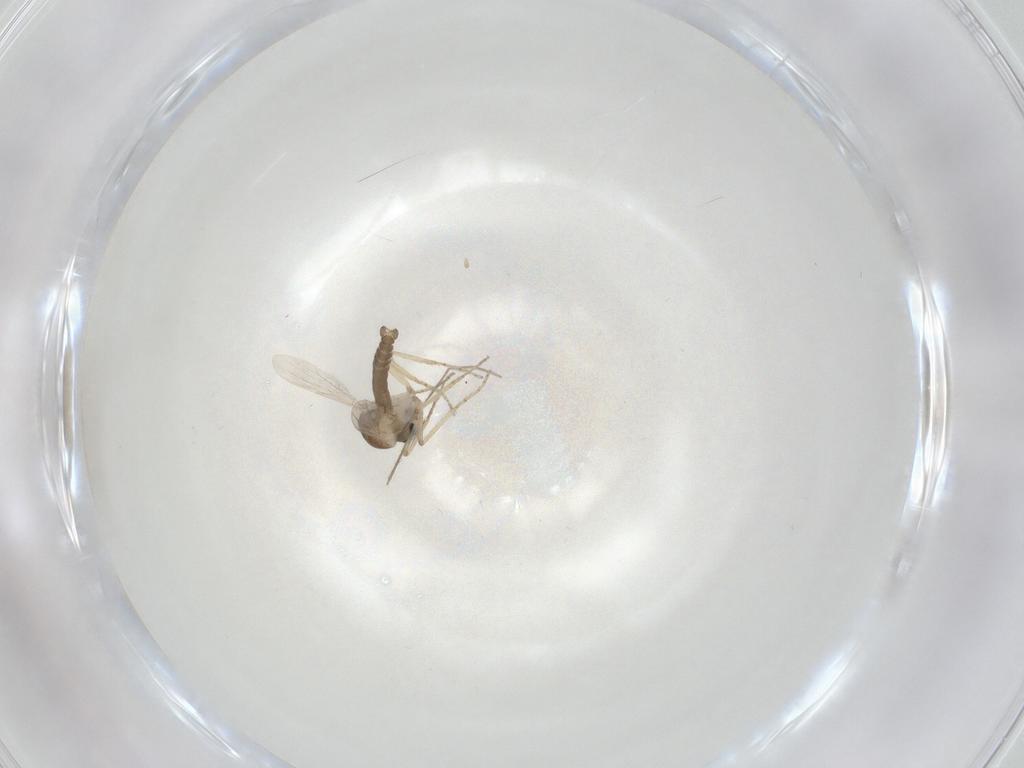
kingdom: Animalia
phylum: Arthropoda
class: Insecta
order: Diptera
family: Ceratopogonidae
